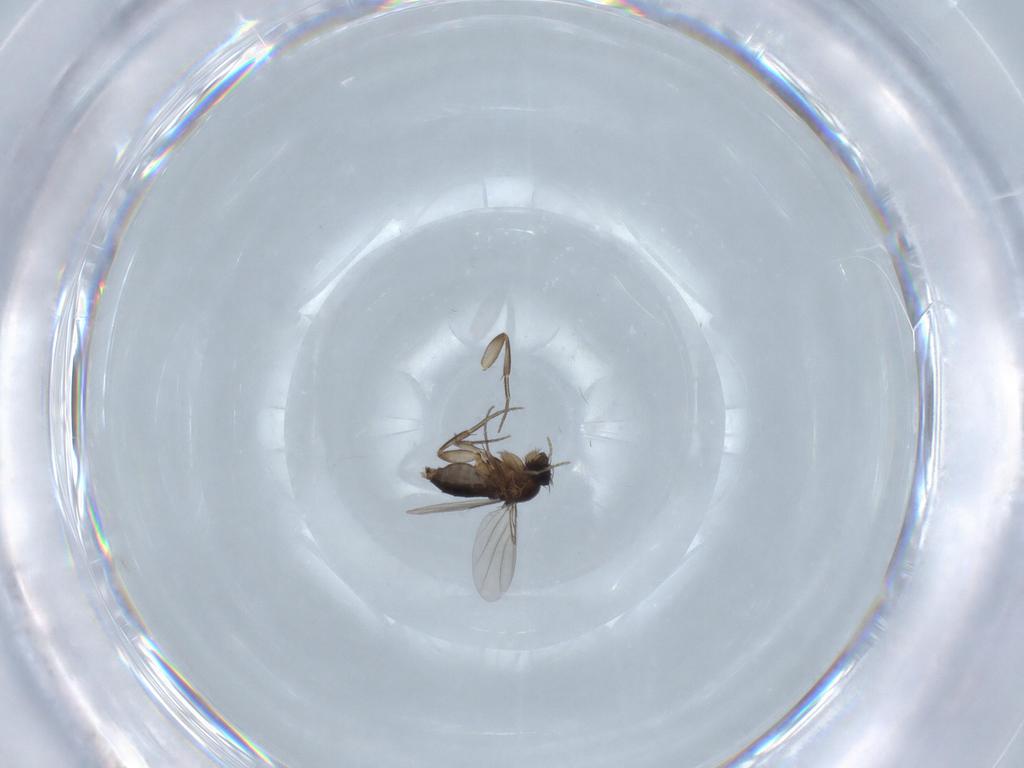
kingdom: Animalia
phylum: Arthropoda
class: Insecta
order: Diptera
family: Phoridae
